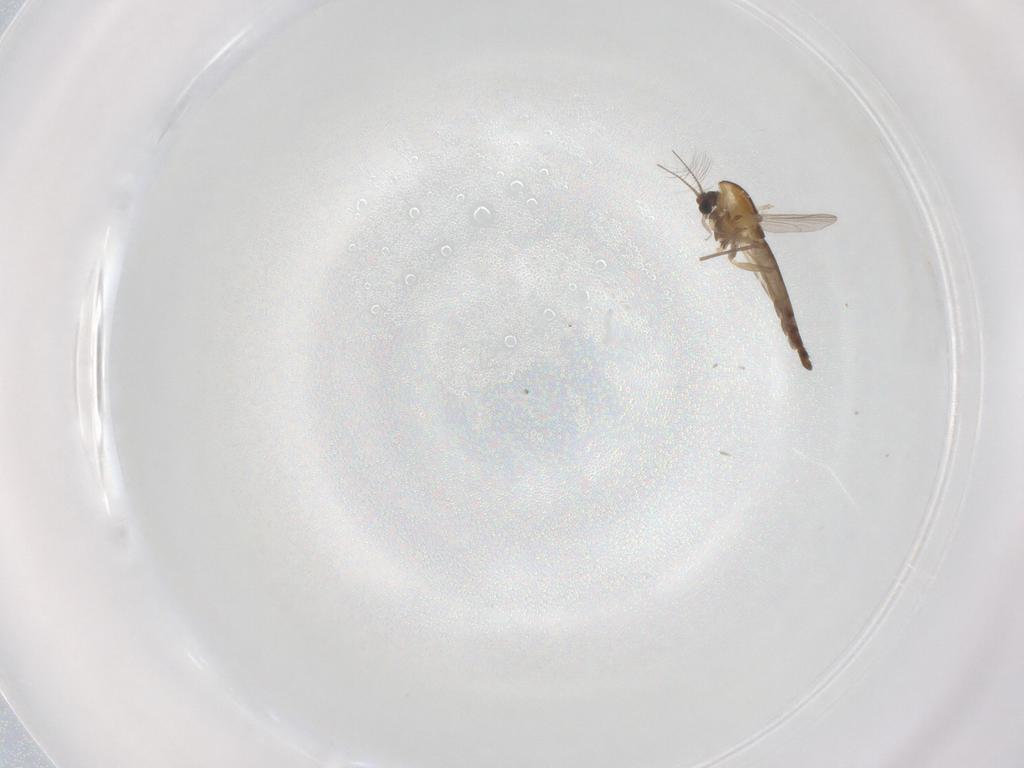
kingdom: Animalia
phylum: Arthropoda
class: Insecta
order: Diptera
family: Chironomidae
